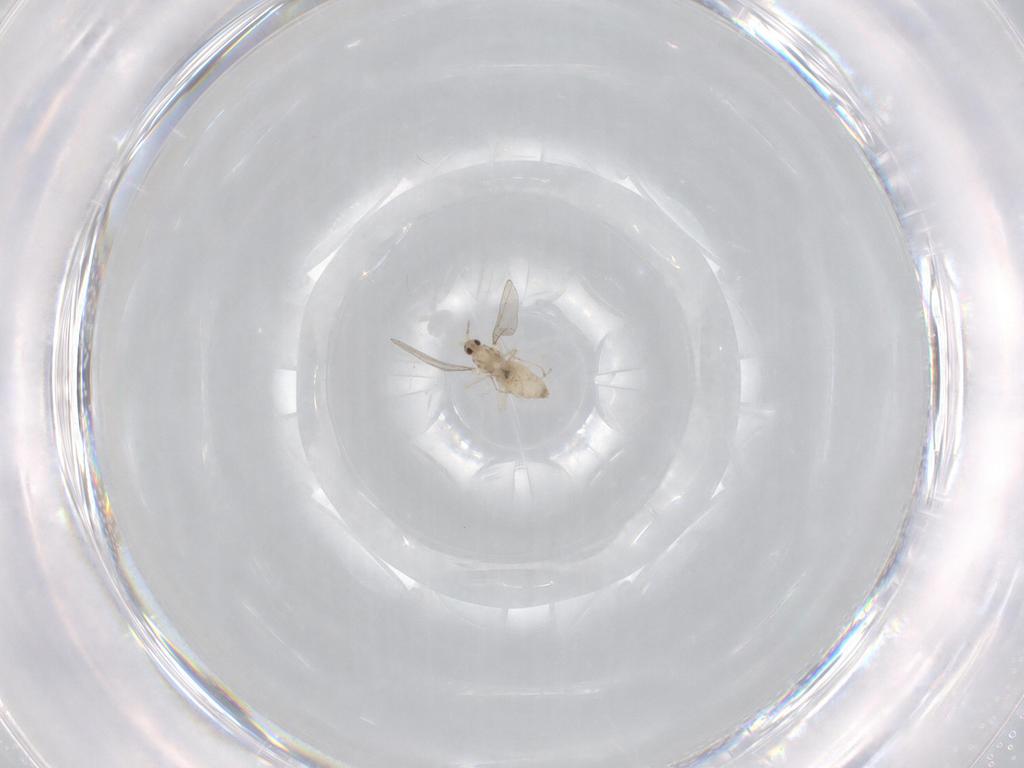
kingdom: Animalia
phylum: Arthropoda
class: Insecta
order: Diptera
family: Cecidomyiidae
